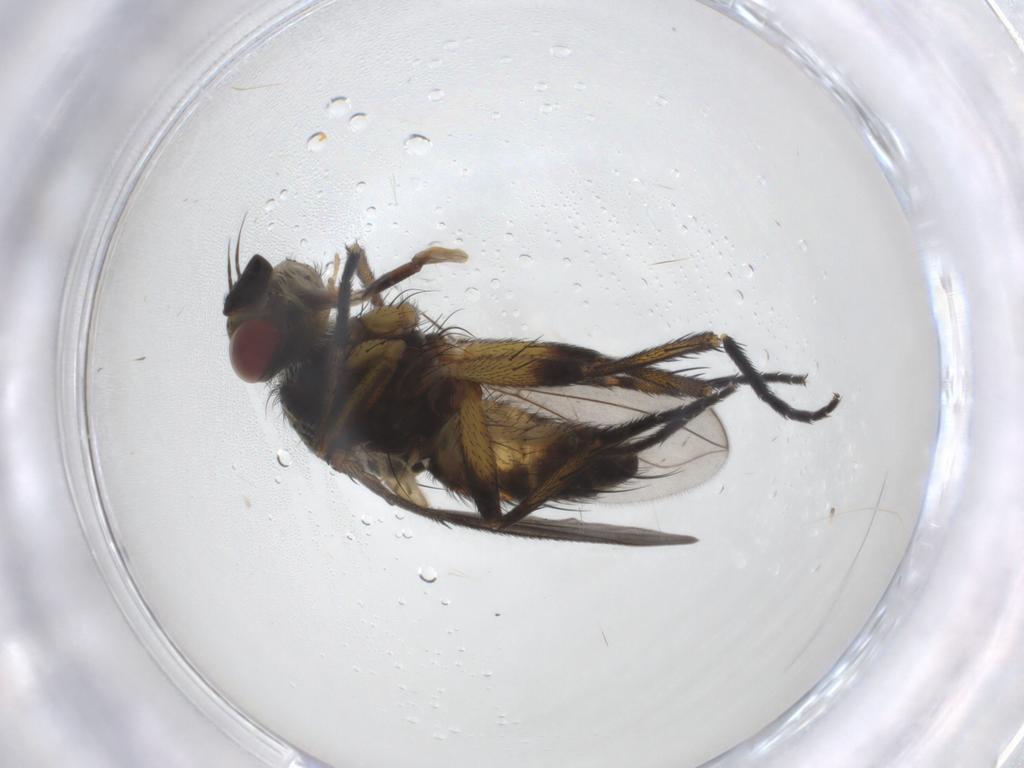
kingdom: Animalia
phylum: Arthropoda
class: Insecta
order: Diptera
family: Tachinidae
